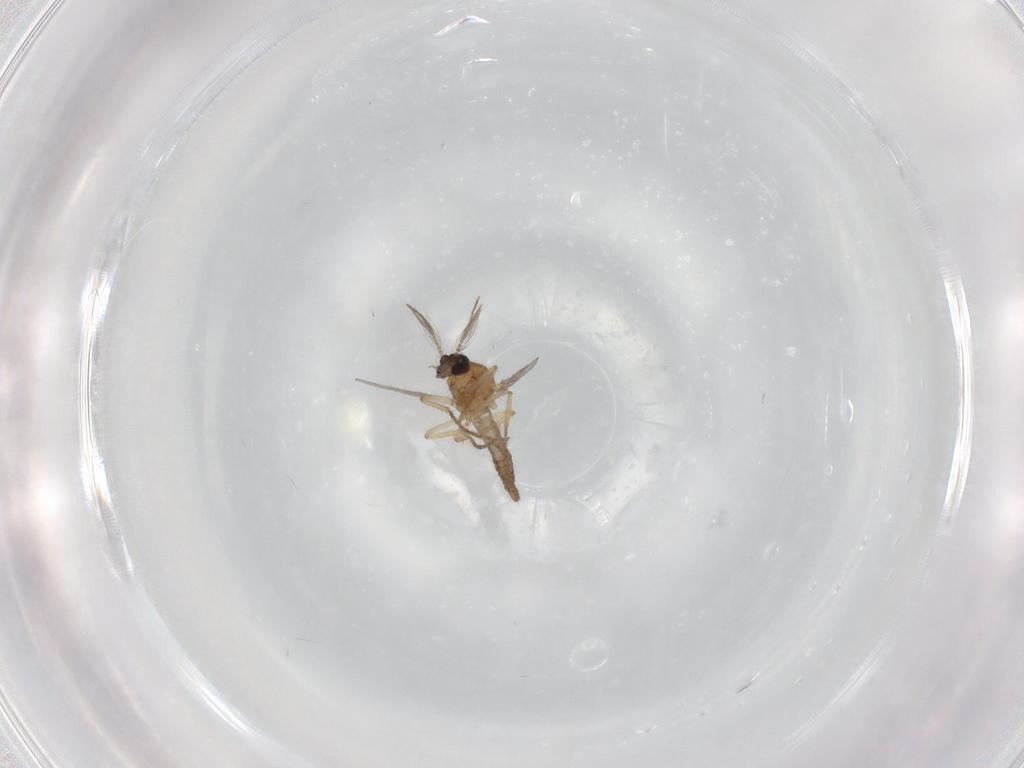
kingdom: Animalia
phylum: Arthropoda
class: Insecta
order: Diptera
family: Ceratopogonidae
